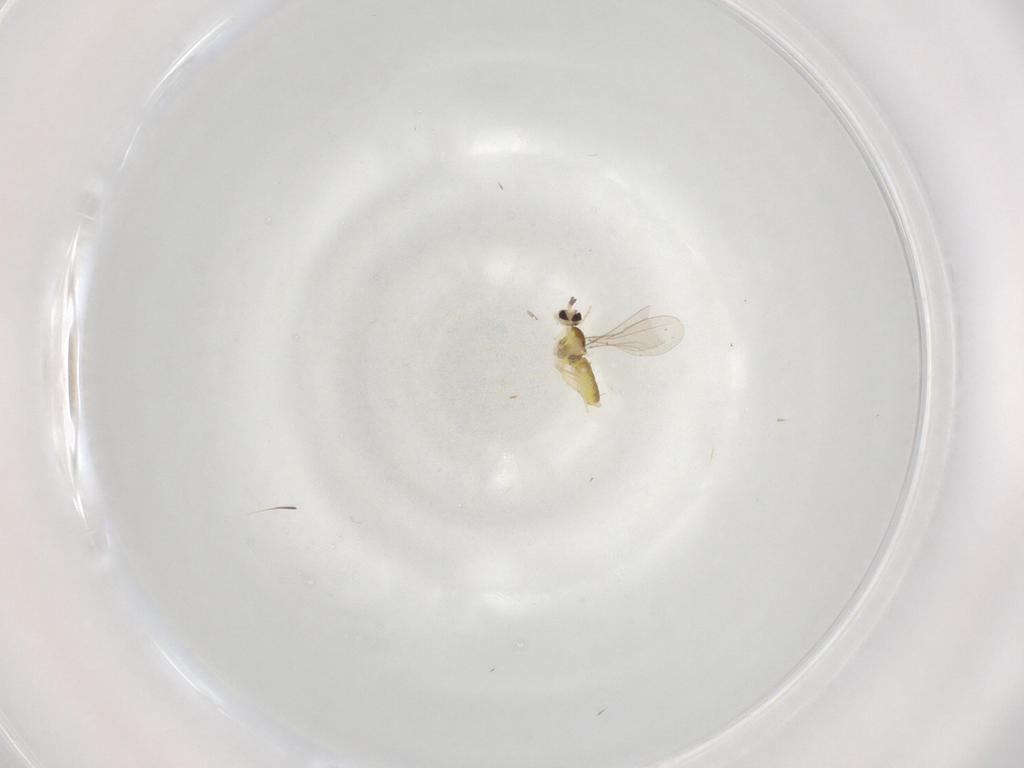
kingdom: Animalia
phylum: Arthropoda
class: Insecta
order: Diptera
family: Cecidomyiidae
